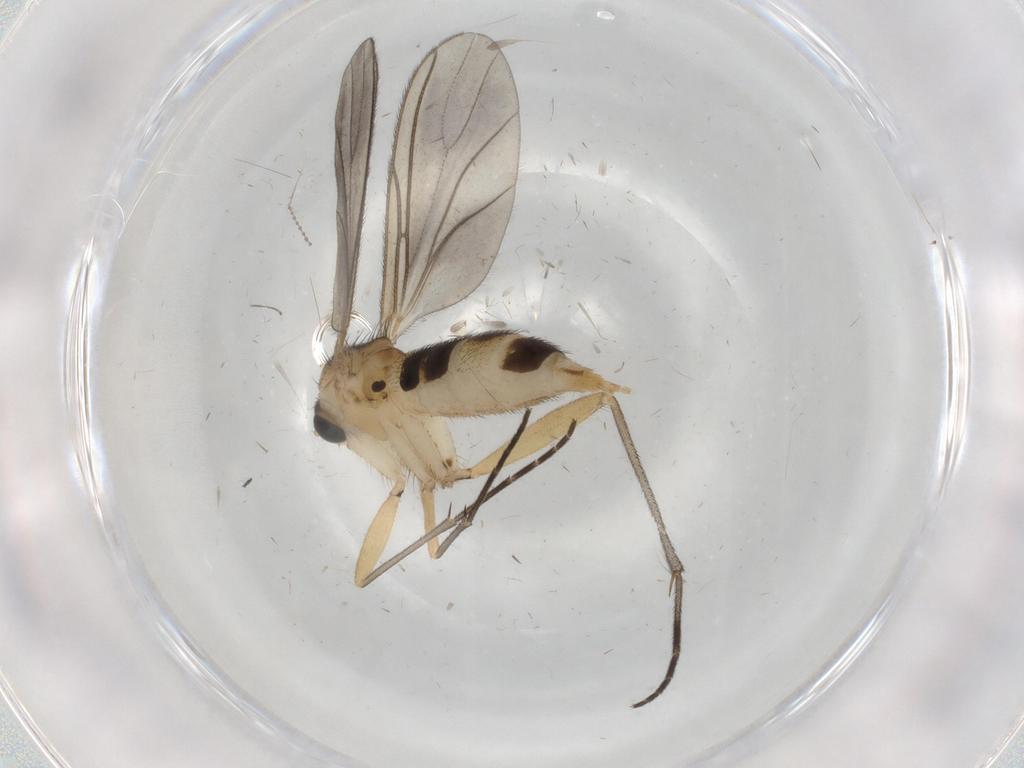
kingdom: Animalia
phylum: Arthropoda
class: Insecta
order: Diptera
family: Sciaridae
